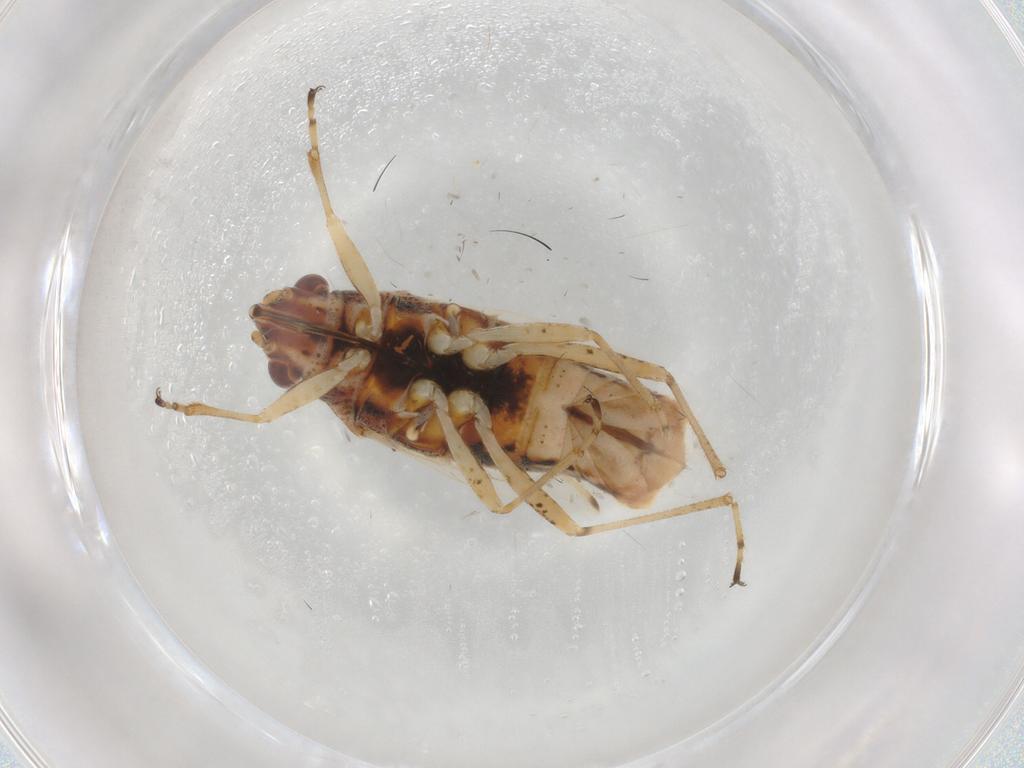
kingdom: Animalia
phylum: Arthropoda
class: Insecta
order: Hemiptera
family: Lygaeidae
